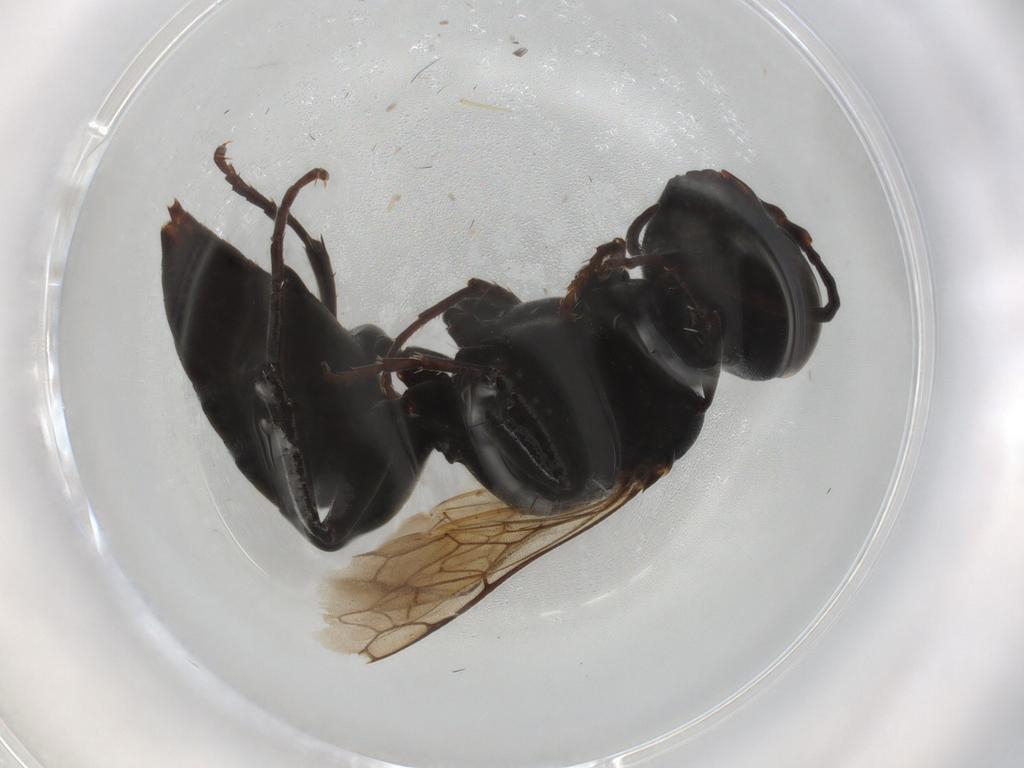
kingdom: Animalia
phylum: Arthropoda
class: Insecta
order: Hymenoptera
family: Crabronidae
